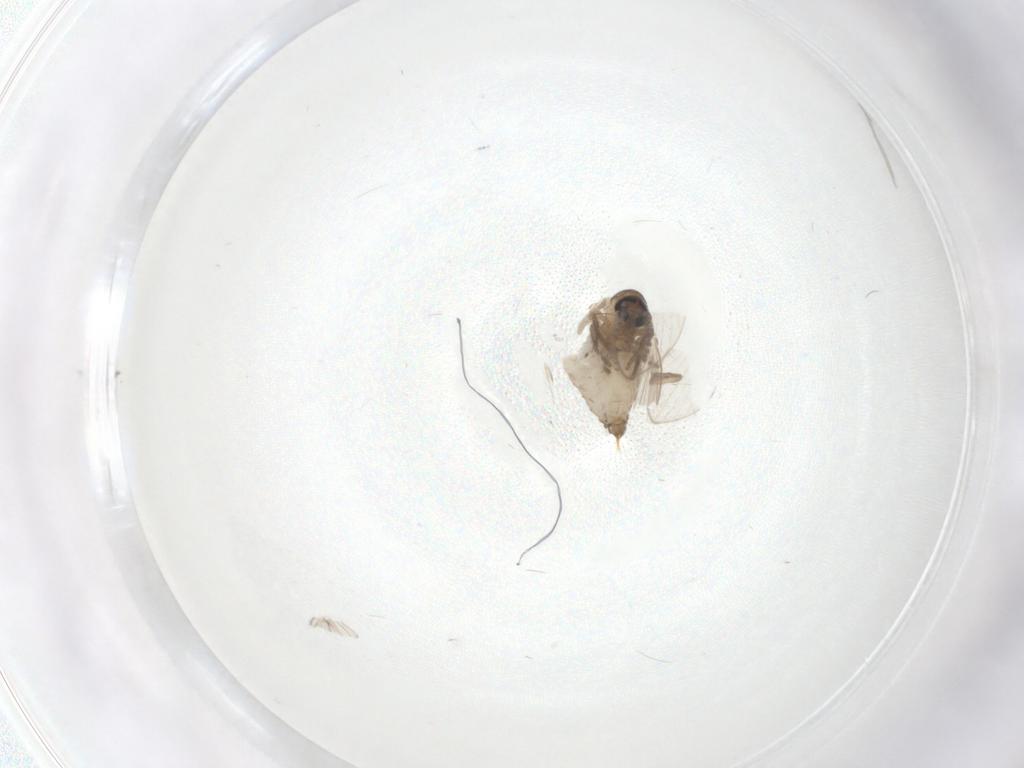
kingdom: Animalia
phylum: Arthropoda
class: Insecta
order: Diptera
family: Psychodidae
